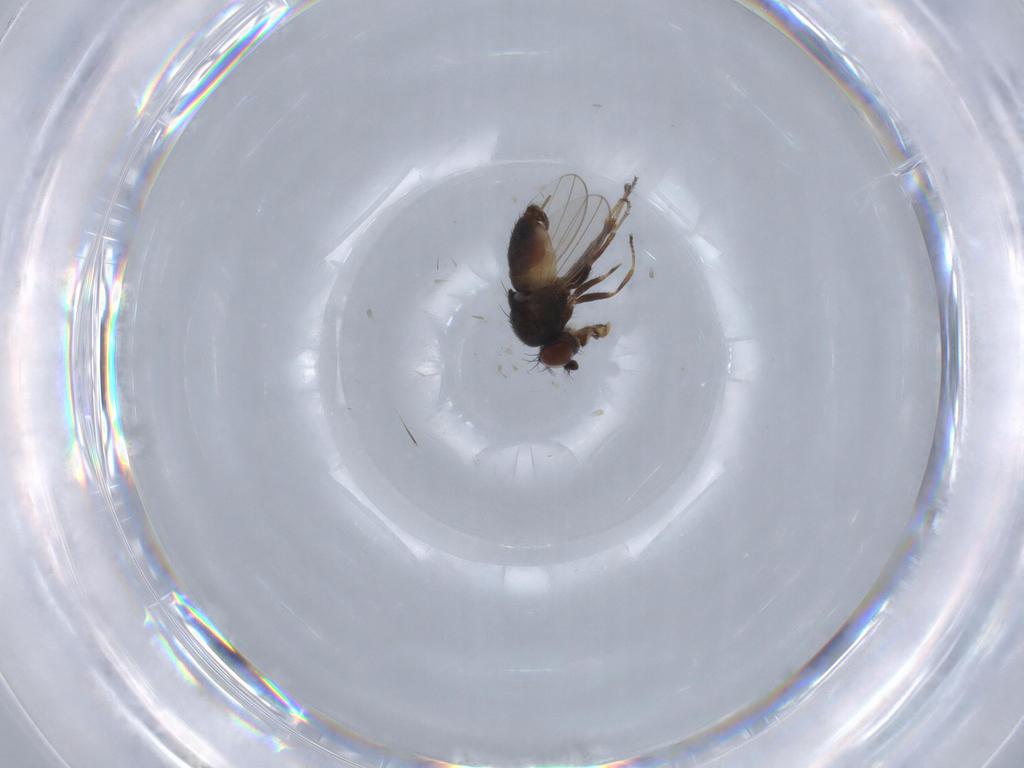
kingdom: Animalia
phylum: Arthropoda
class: Insecta
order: Diptera
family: Ephydridae
